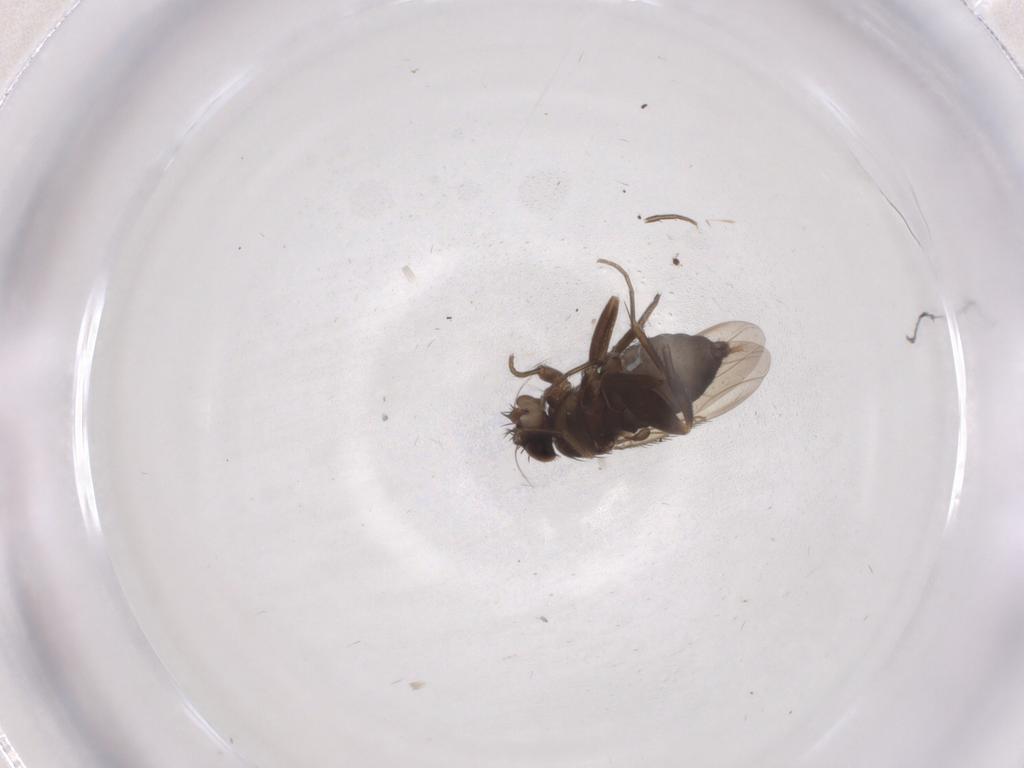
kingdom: Animalia
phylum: Arthropoda
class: Insecta
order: Diptera
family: Phoridae
